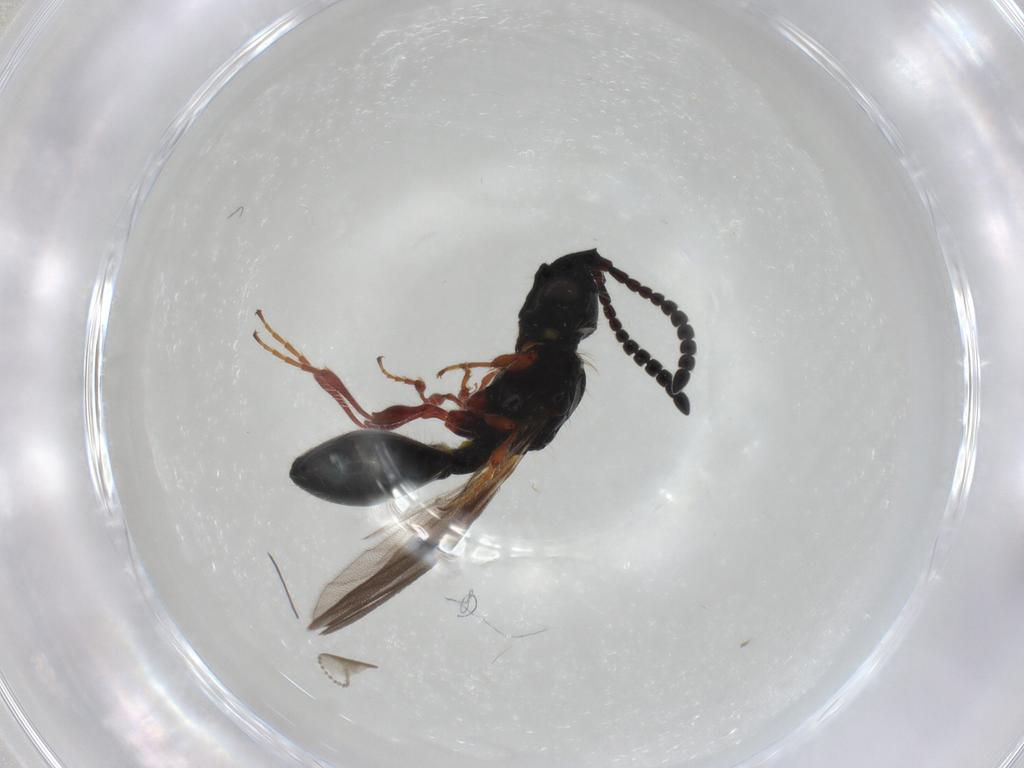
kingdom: Animalia
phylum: Arthropoda
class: Insecta
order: Hymenoptera
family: Diapriidae
